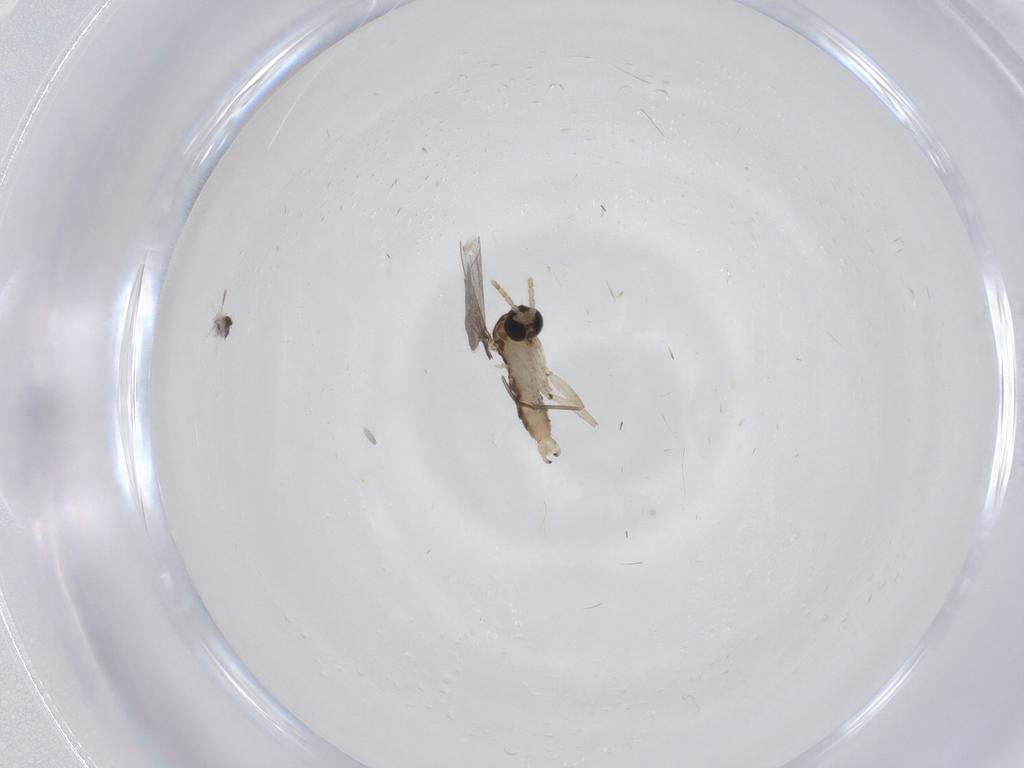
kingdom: Animalia
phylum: Arthropoda
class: Insecta
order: Diptera
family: Sciaridae
